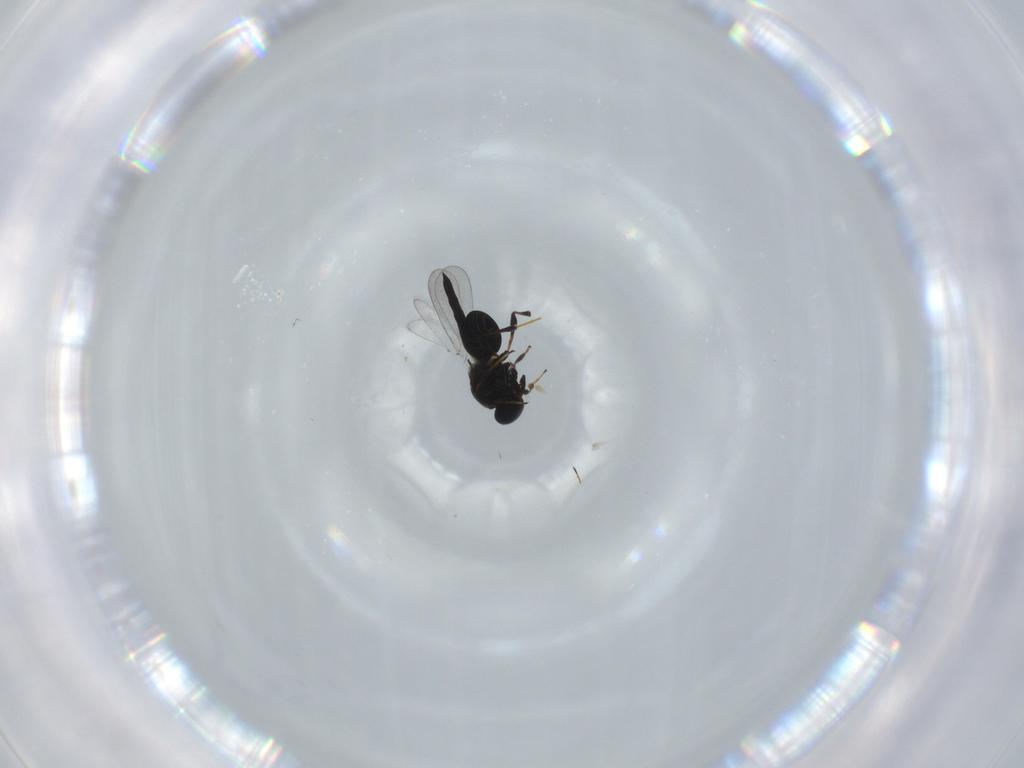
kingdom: Animalia
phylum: Arthropoda
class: Insecta
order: Hymenoptera
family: Platygastridae
